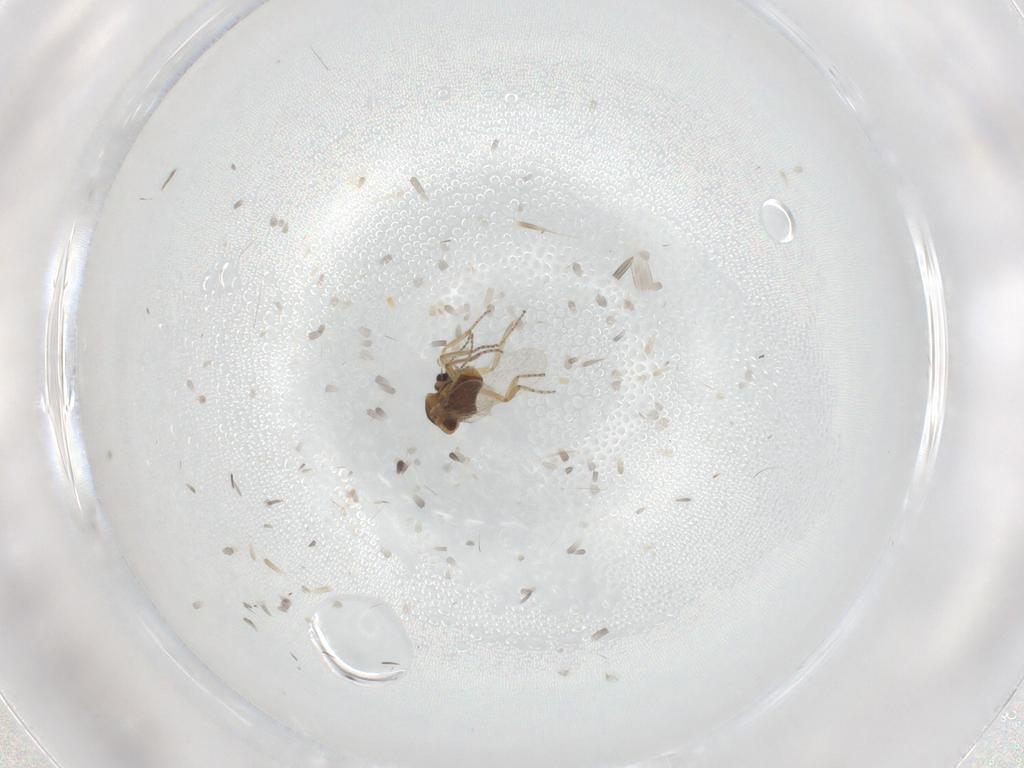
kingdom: Animalia
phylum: Arthropoda
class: Insecta
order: Diptera
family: Ceratopogonidae
